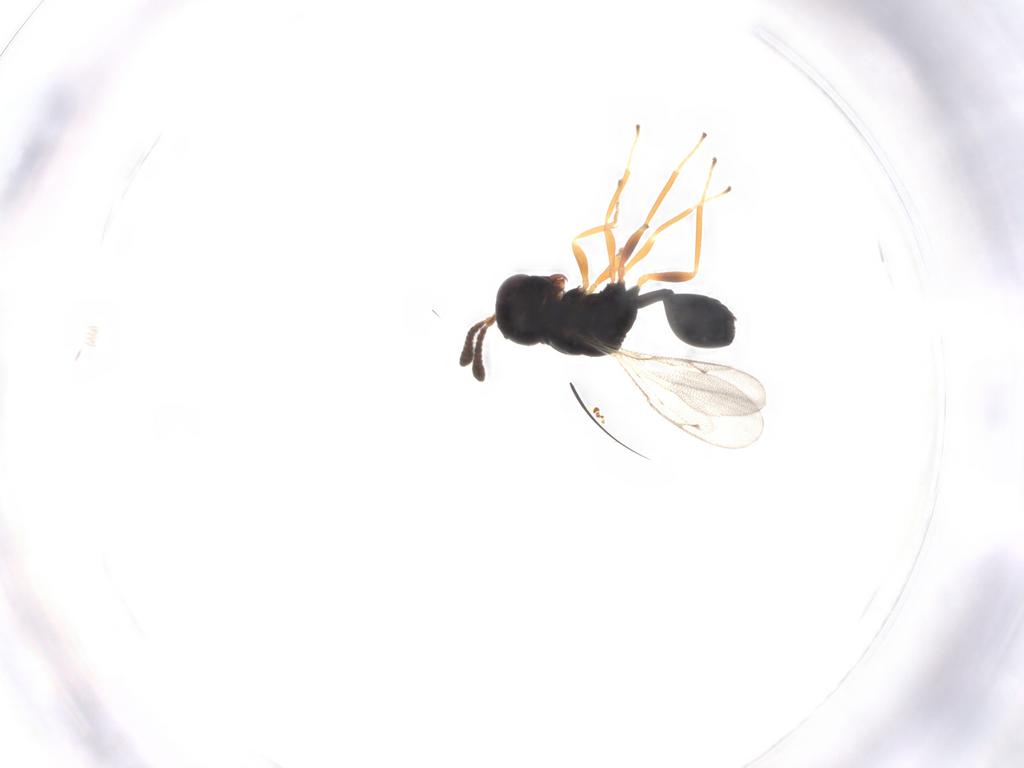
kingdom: Animalia
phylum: Arthropoda
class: Insecta
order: Hymenoptera
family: Pteromalidae
